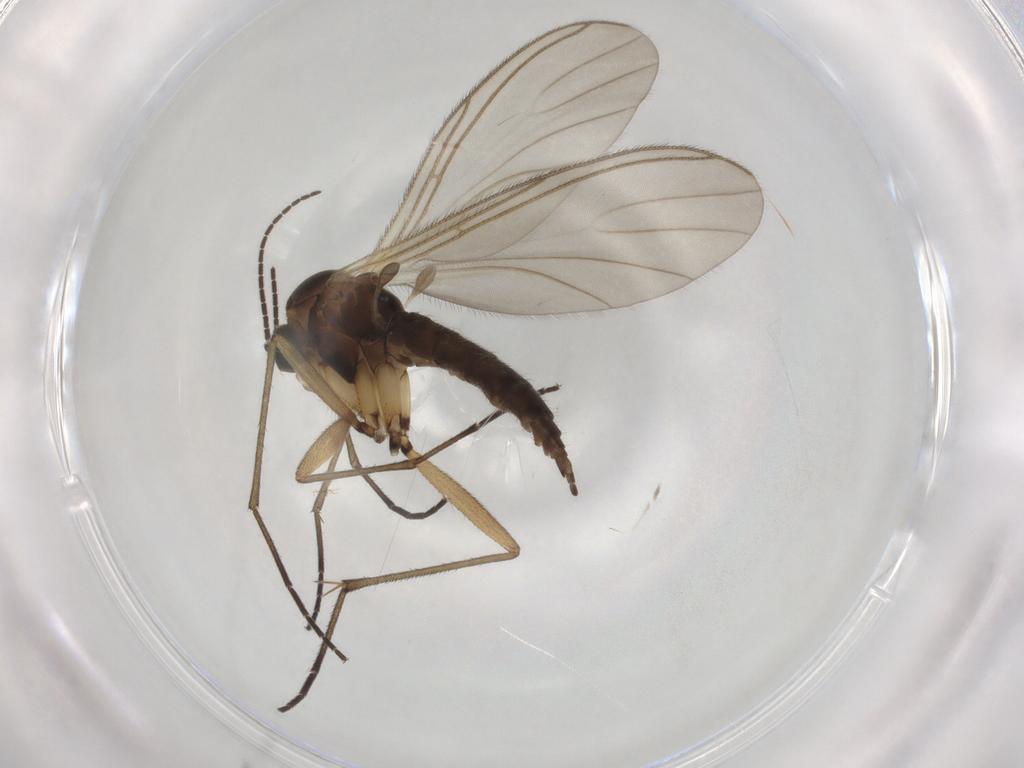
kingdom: Animalia
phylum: Arthropoda
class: Insecta
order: Diptera
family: Sciaridae
